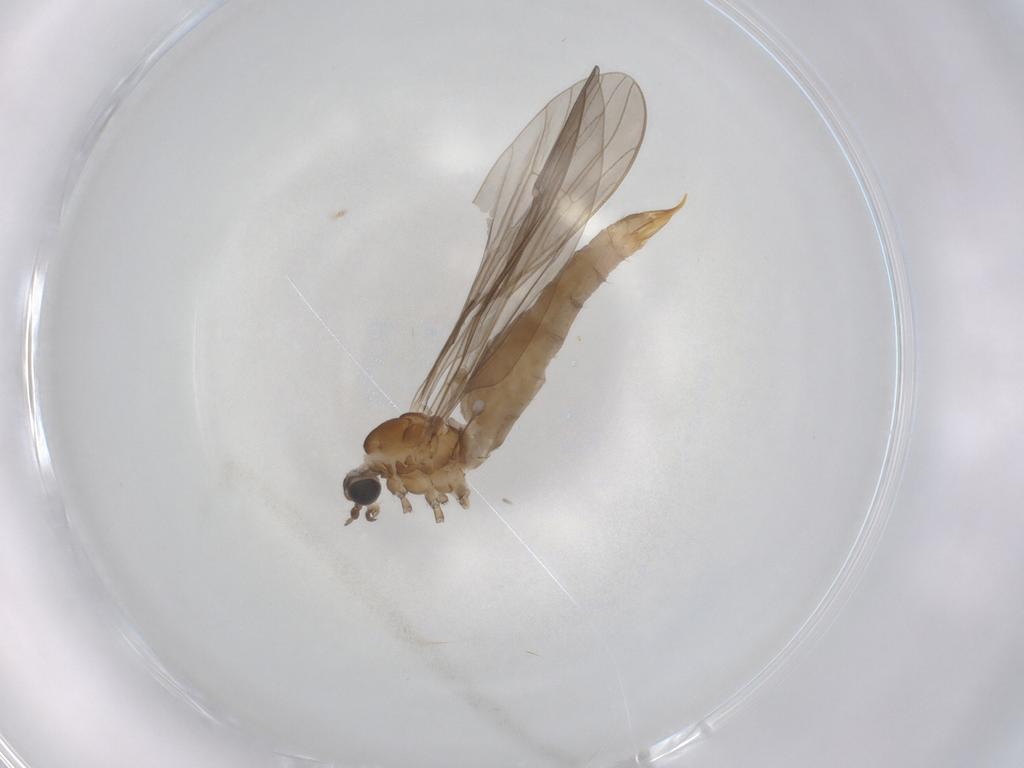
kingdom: Animalia
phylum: Arthropoda
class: Insecta
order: Diptera
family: Limoniidae
